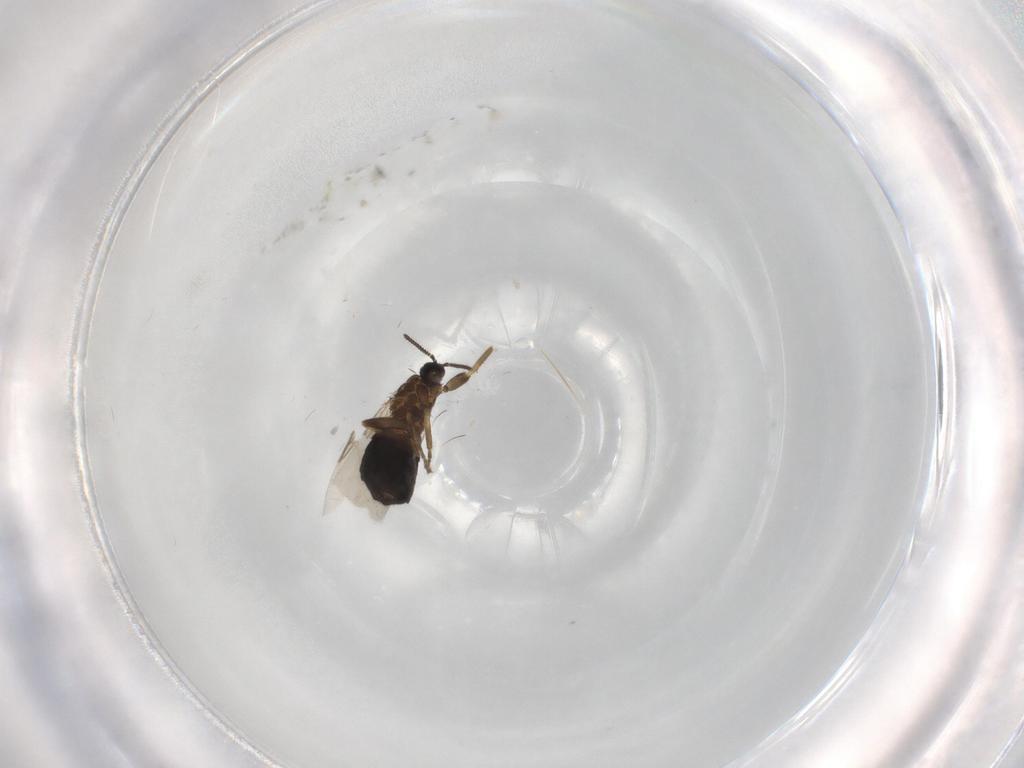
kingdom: Animalia
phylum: Arthropoda
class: Insecta
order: Diptera
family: Scatopsidae
